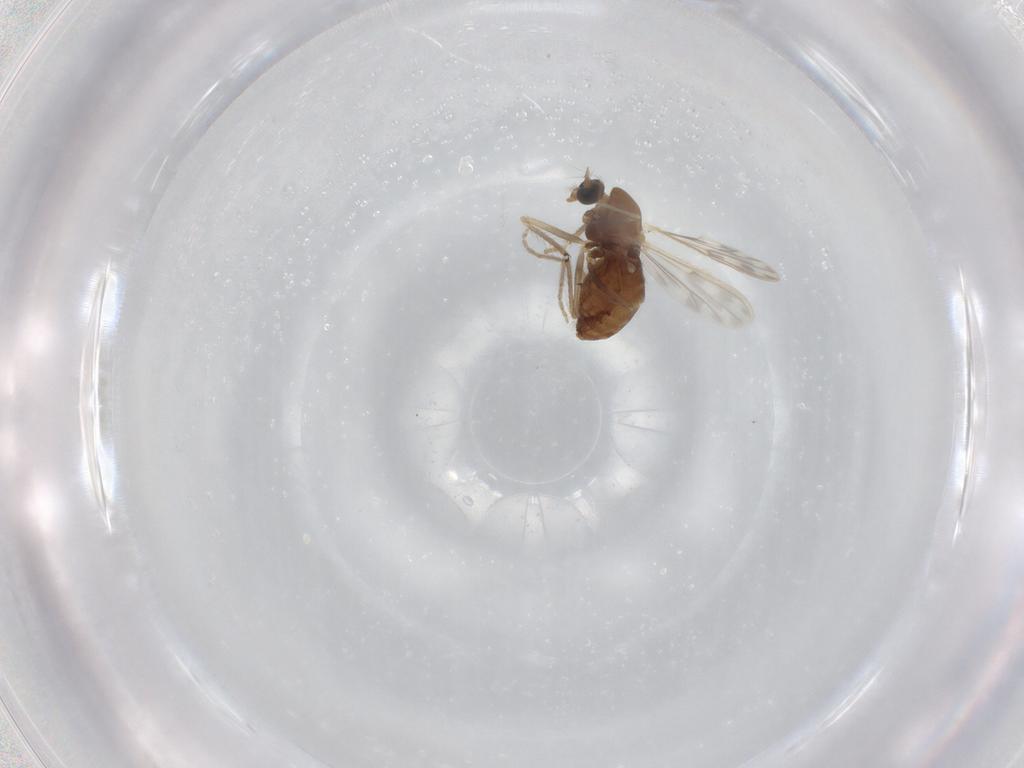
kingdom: Animalia
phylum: Arthropoda
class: Insecta
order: Diptera
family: Chironomidae
